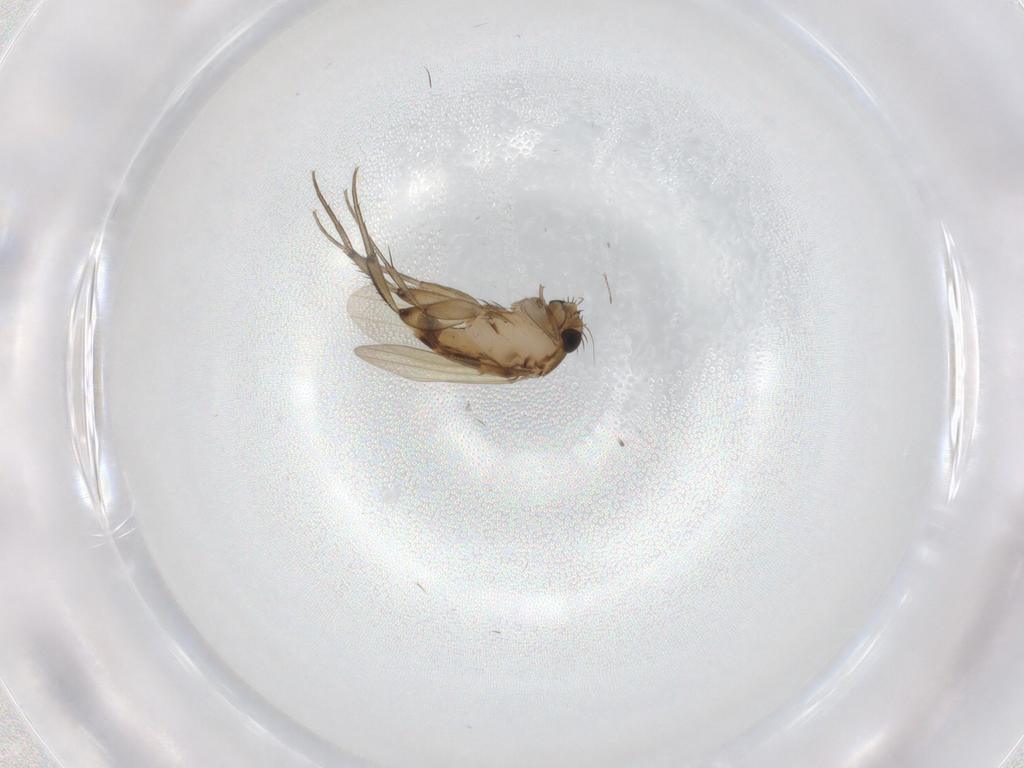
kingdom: Animalia
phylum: Arthropoda
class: Insecta
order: Diptera
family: Phoridae
